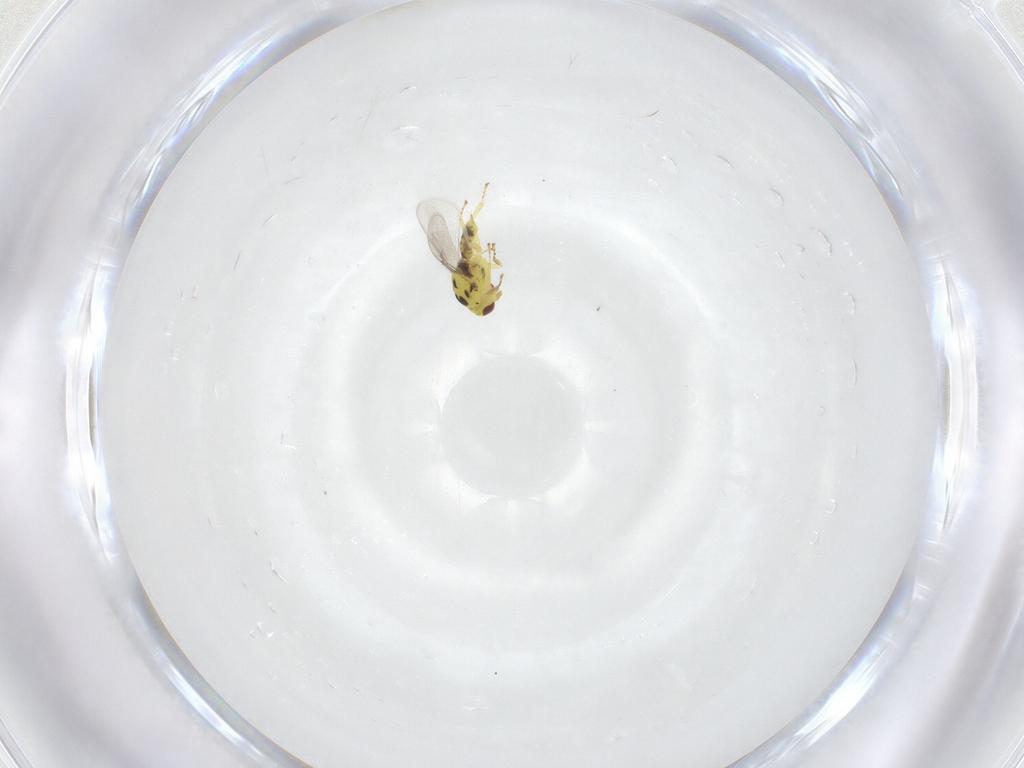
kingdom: Animalia
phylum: Arthropoda
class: Insecta
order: Hymenoptera
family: Eulophidae
